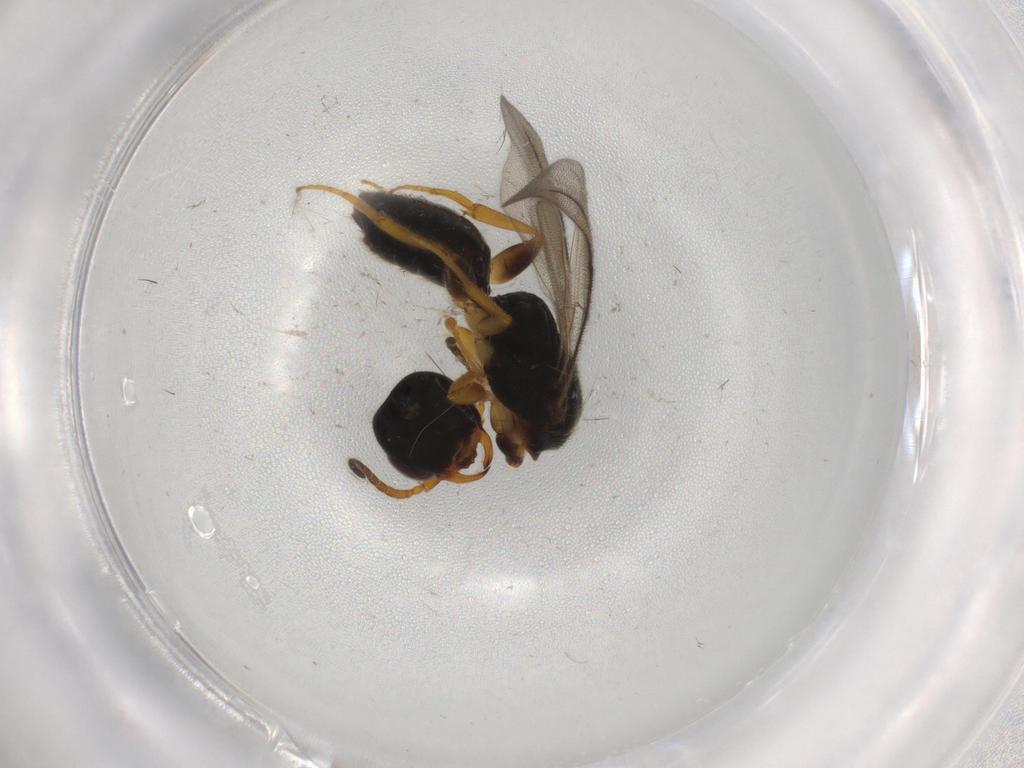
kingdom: Animalia
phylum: Arthropoda
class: Insecta
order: Hymenoptera
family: Bethylidae
